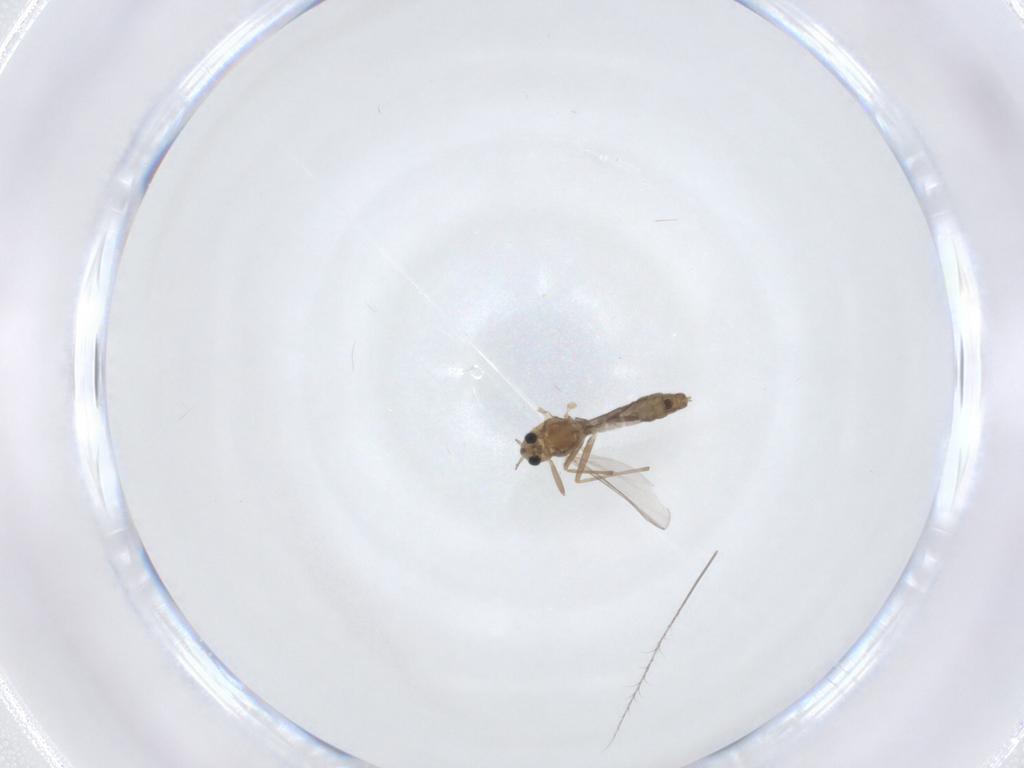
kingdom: Animalia
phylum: Arthropoda
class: Insecta
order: Diptera
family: Chironomidae
